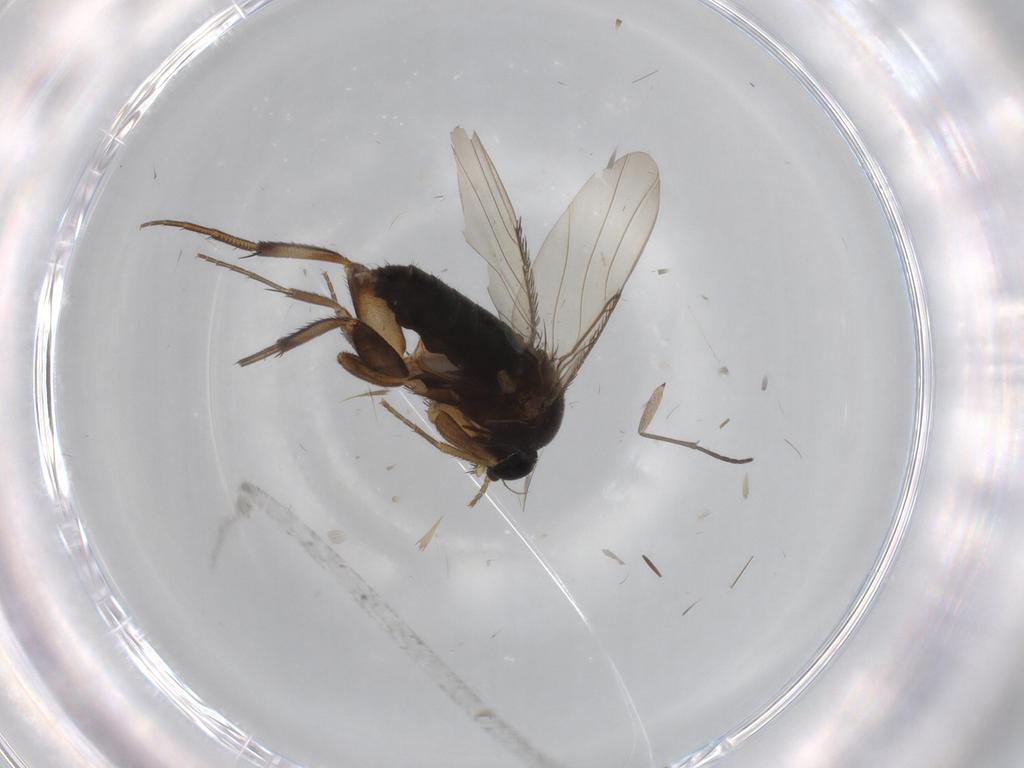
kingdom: Animalia
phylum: Arthropoda
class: Insecta
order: Diptera
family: Phoridae
